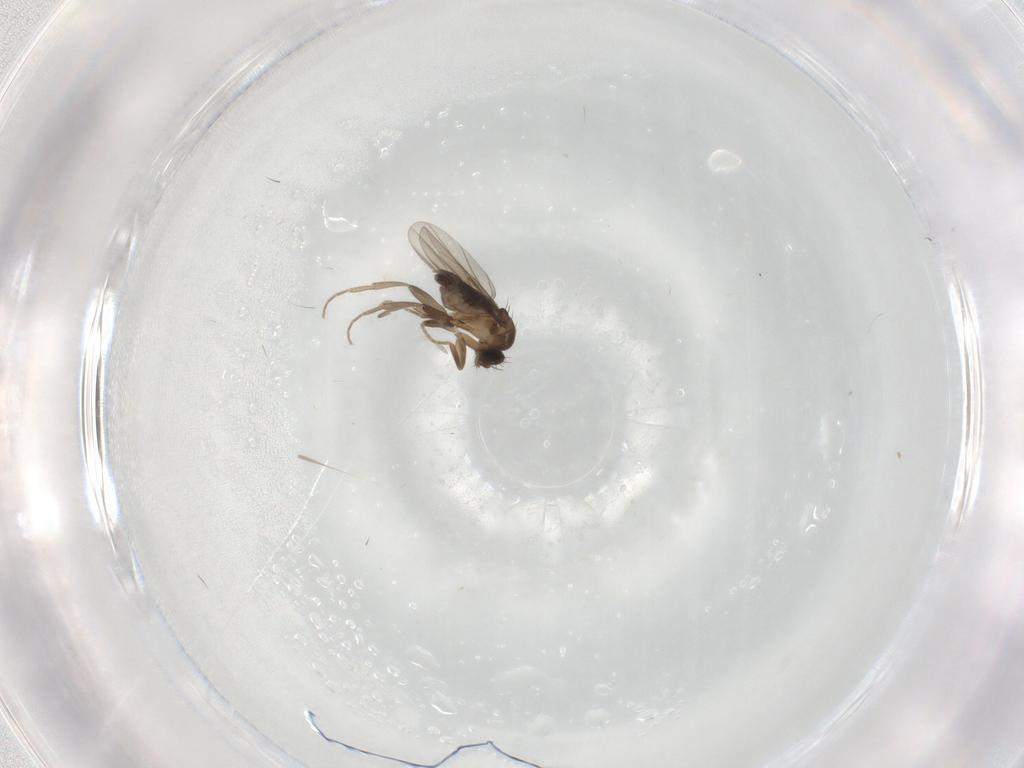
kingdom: Animalia
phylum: Arthropoda
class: Insecta
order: Diptera
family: Phoridae
